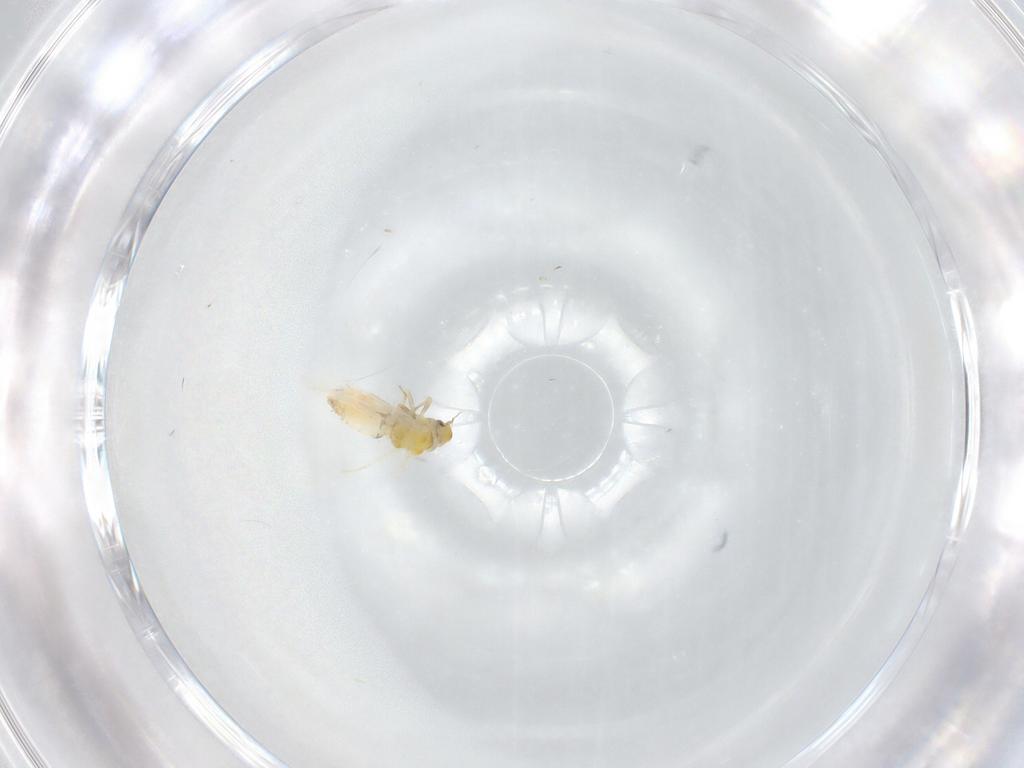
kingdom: Animalia
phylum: Arthropoda
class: Insecta
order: Hemiptera
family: Aleyrodidae
